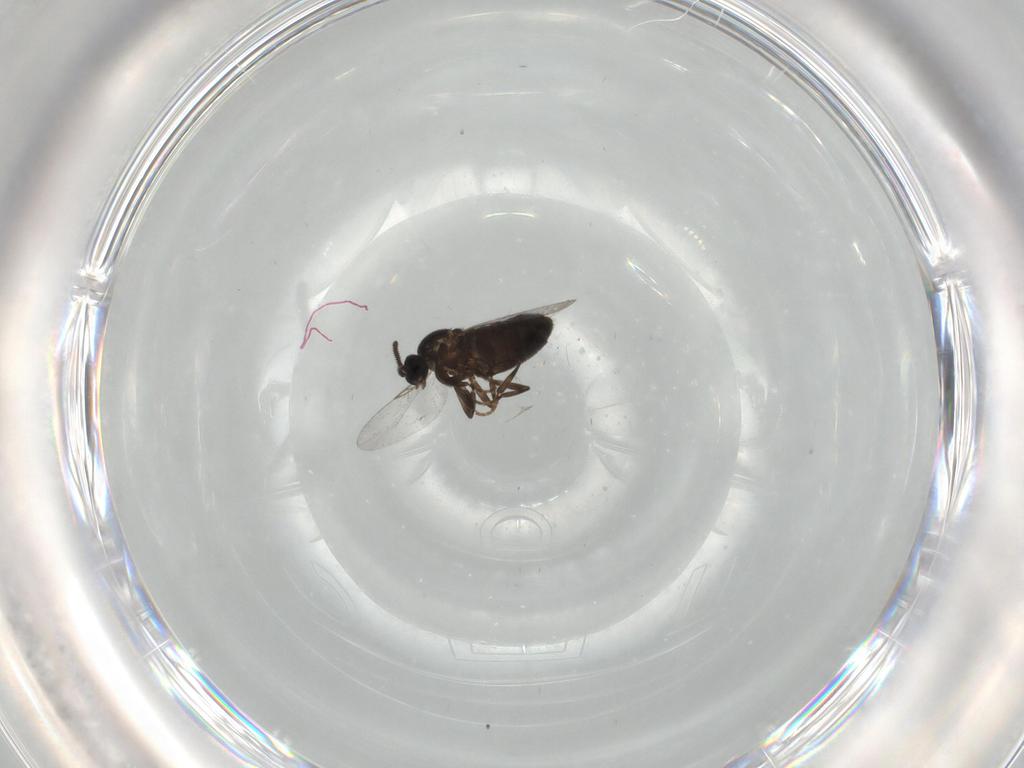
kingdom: Animalia
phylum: Arthropoda
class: Insecta
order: Diptera
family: Calliphoridae
